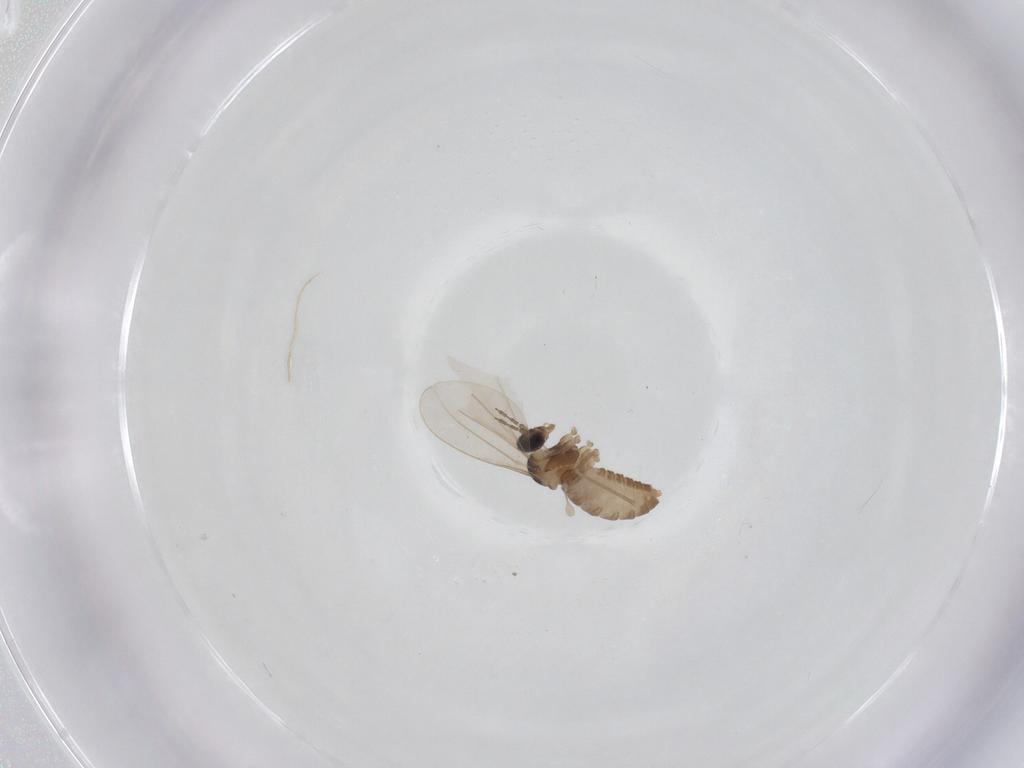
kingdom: Animalia
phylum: Arthropoda
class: Insecta
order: Diptera
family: Cecidomyiidae
